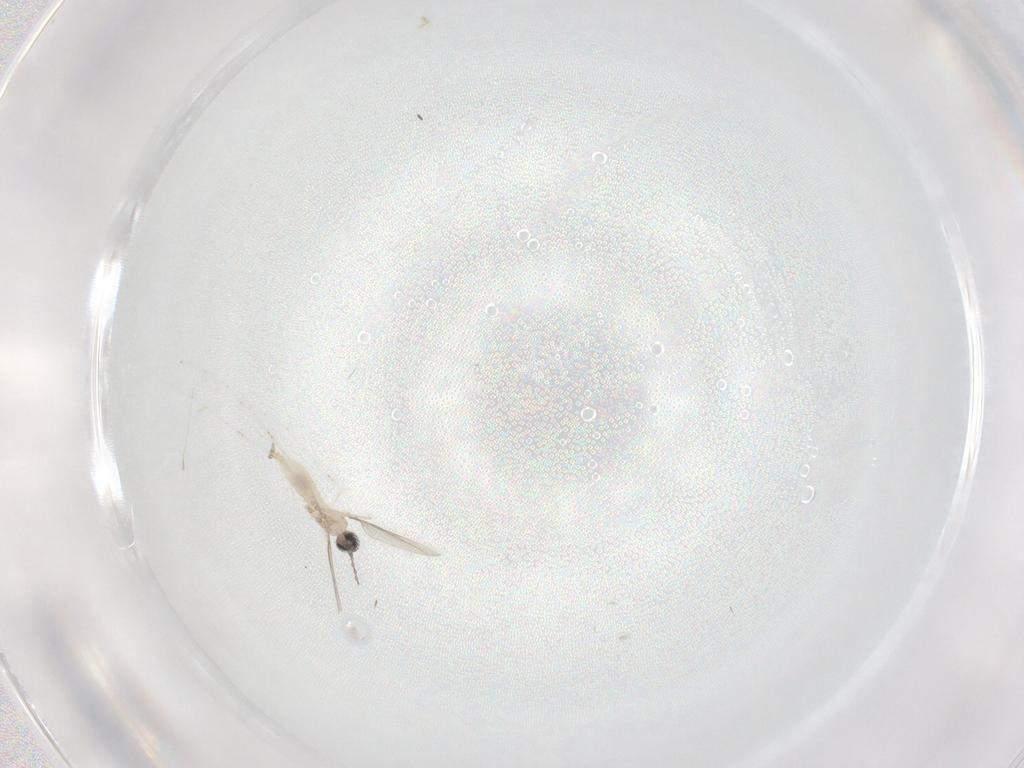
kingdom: Animalia
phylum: Arthropoda
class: Insecta
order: Diptera
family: Cecidomyiidae
